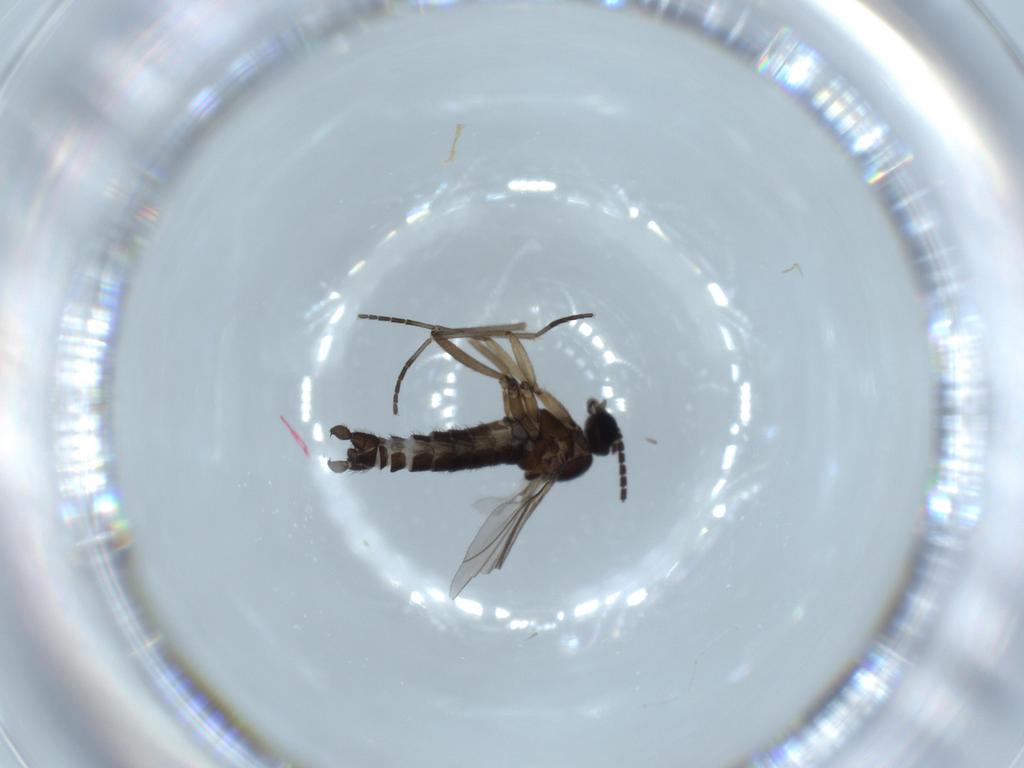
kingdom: Animalia
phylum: Arthropoda
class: Insecta
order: Diptera
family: Sciaridae
